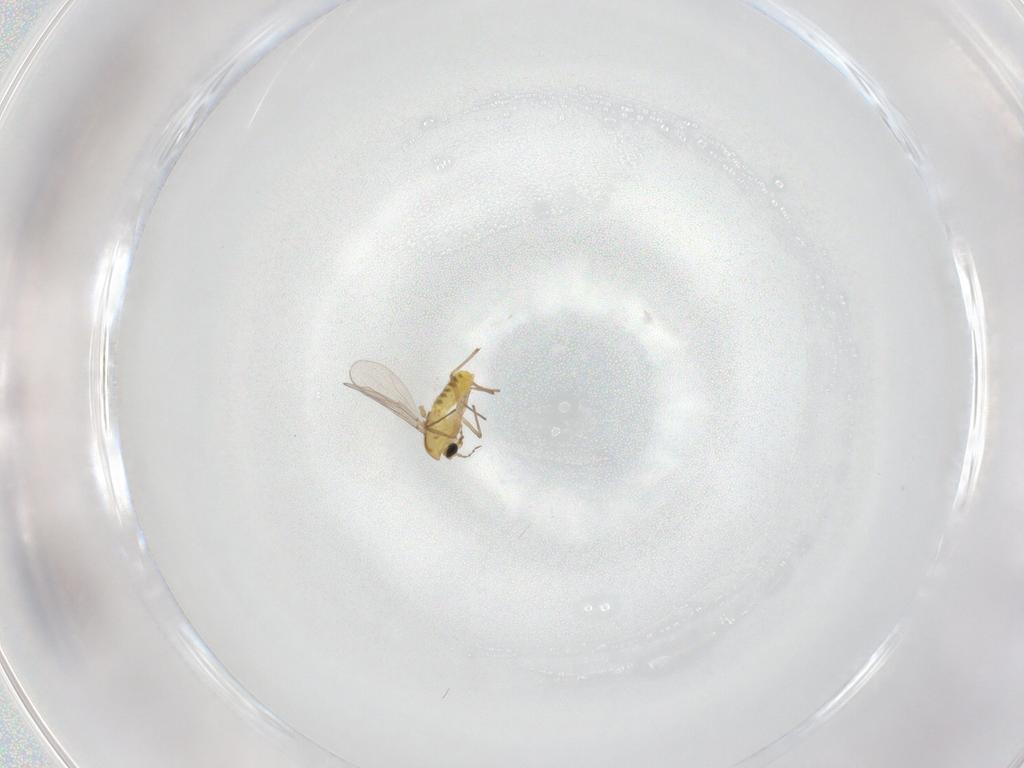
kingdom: Animalia
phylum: Arthropoda
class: Insecta
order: Diptera
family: Chironomidae
